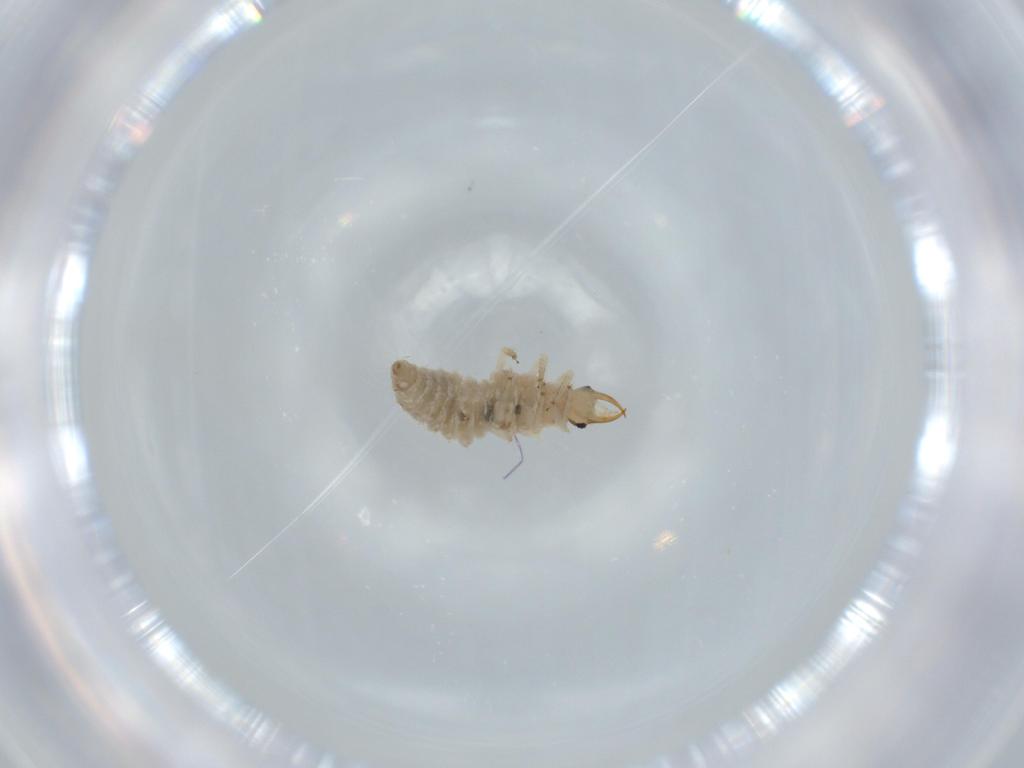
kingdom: Animalia
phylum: Arthropoda
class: Insecta
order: Neuroptera
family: Chrysopidae
